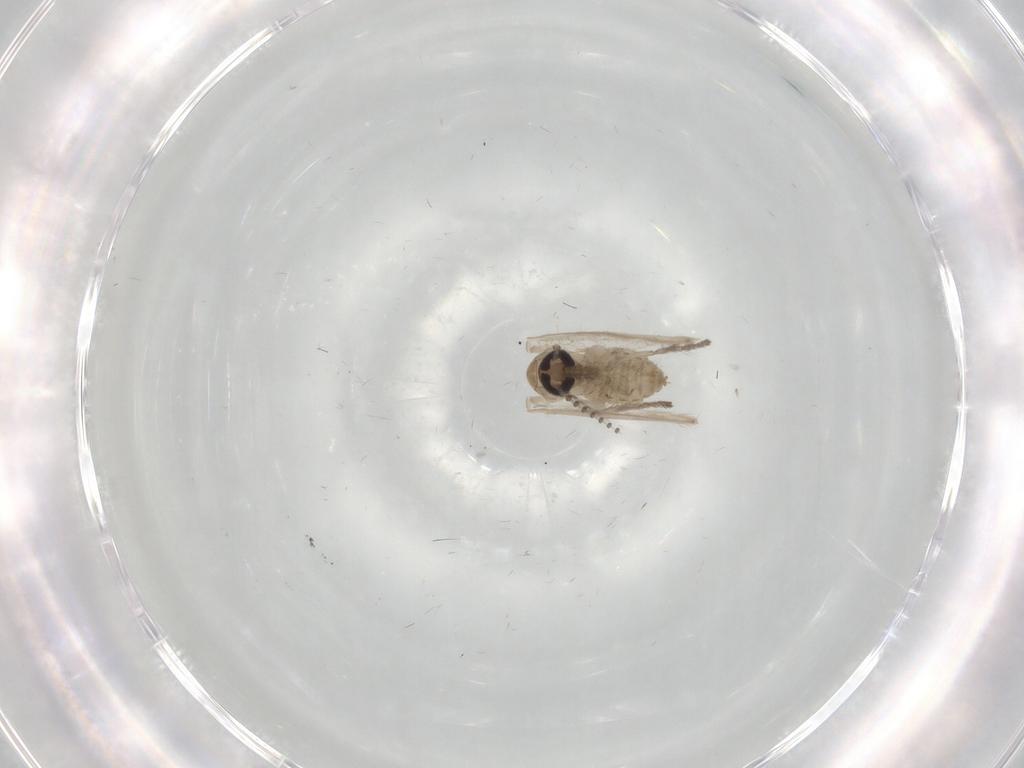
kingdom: Animalia
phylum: Arthropoda
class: Insecta
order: Diptera
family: Psychodidae
